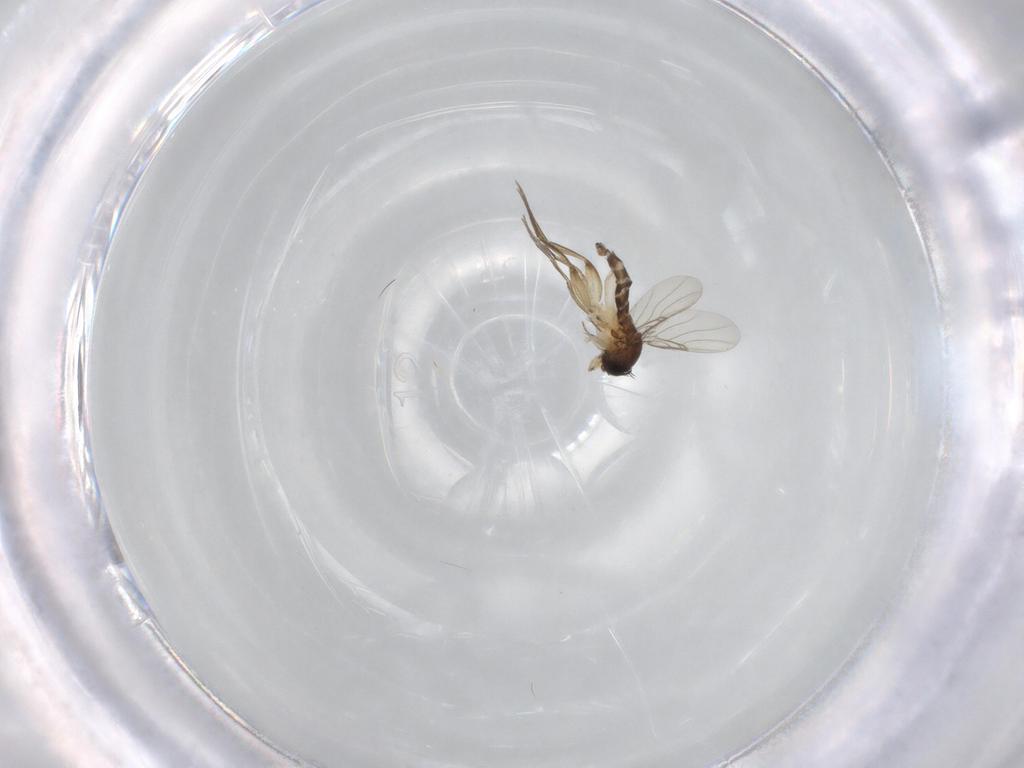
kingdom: Animalia
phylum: Arthropoda
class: Insecta
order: Diptera
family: Phoridae
